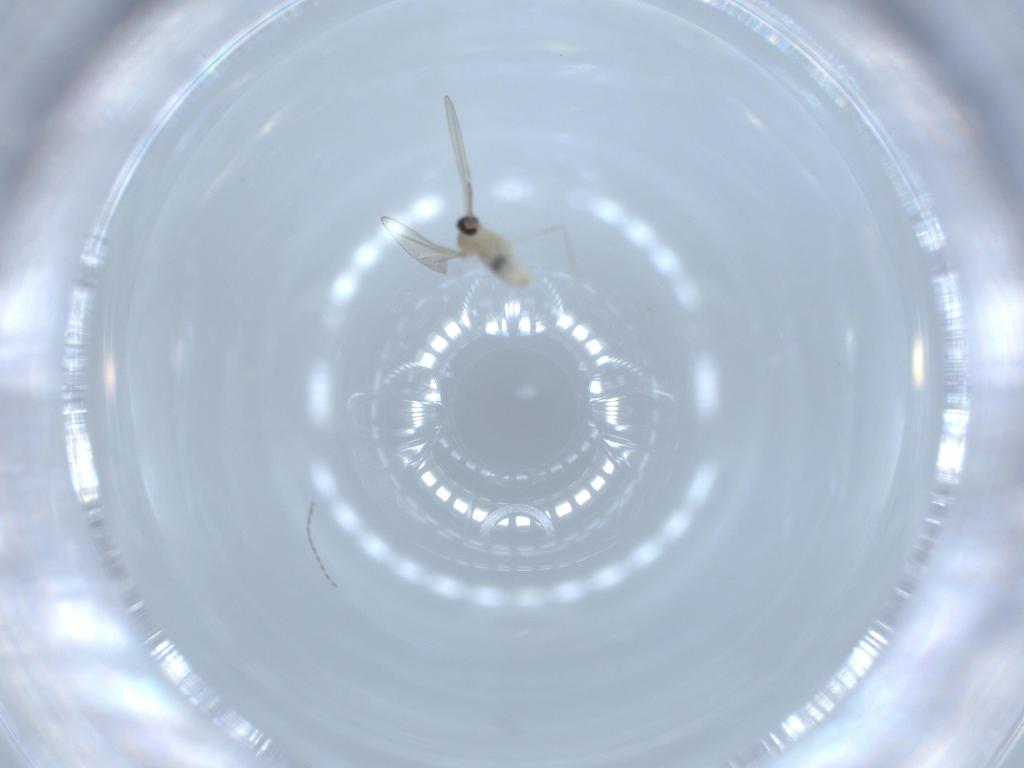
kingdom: Animalia
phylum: Arthropoda
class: Insecta
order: Diptera
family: Cecidomyiidae
